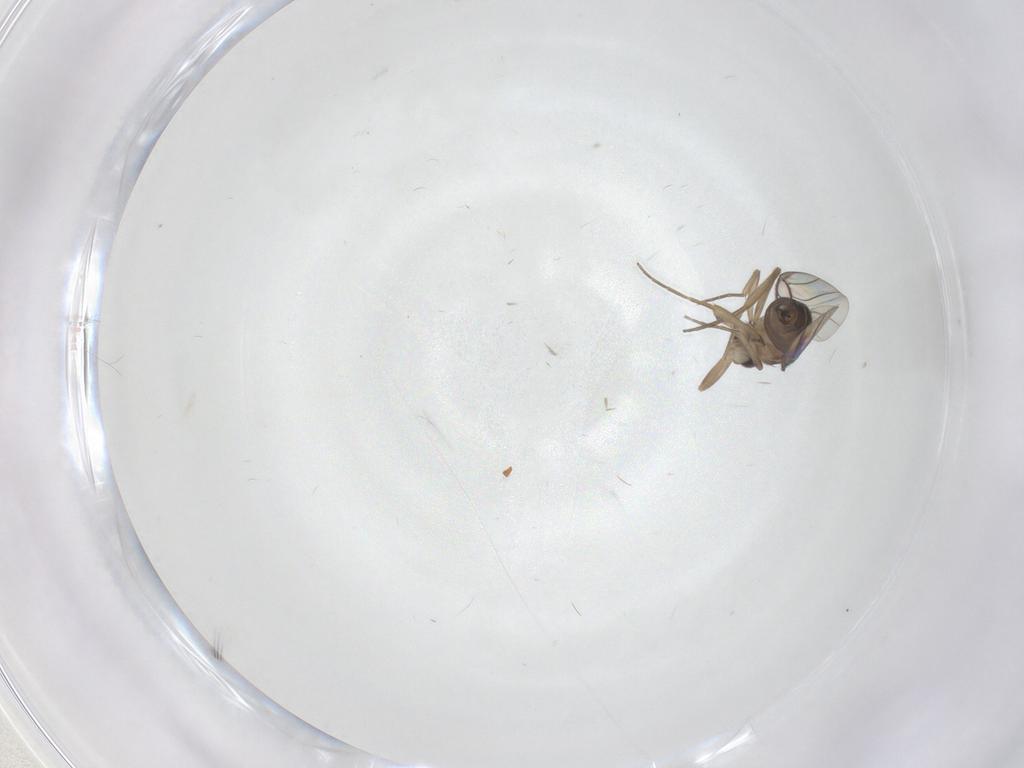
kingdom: Animalia
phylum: Arthropoda
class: Insecta
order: Diptera
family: Phoridae
